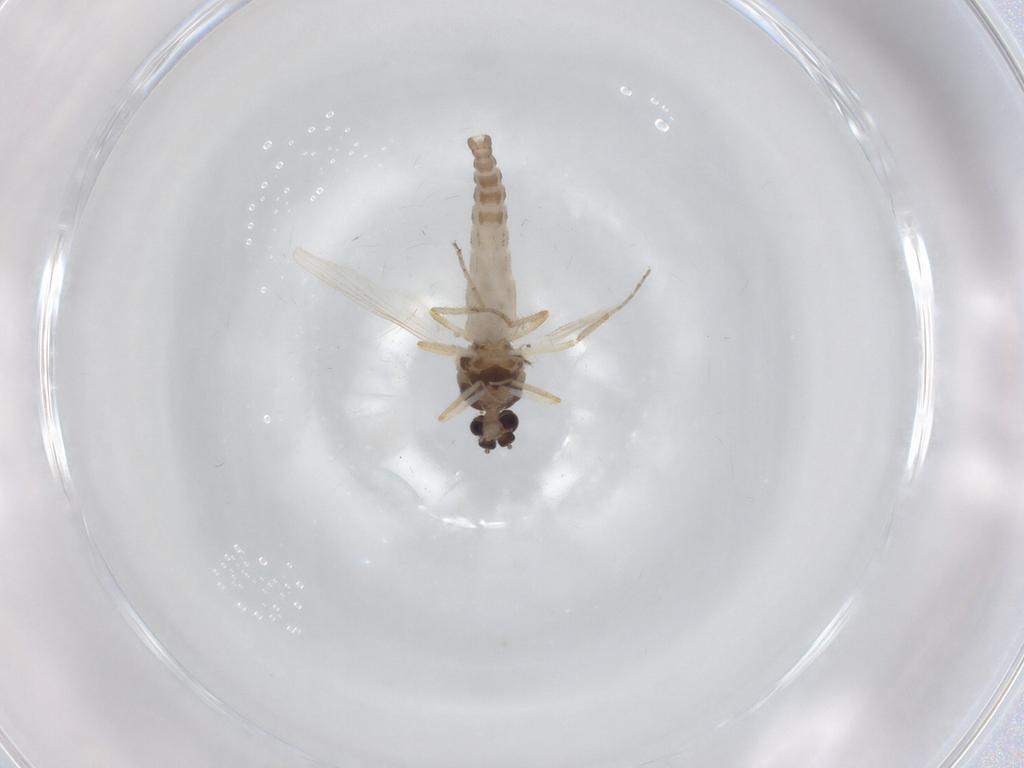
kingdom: Animalia
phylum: Arthropoda
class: Insecta
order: Diptera
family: Ceratopogonidae
